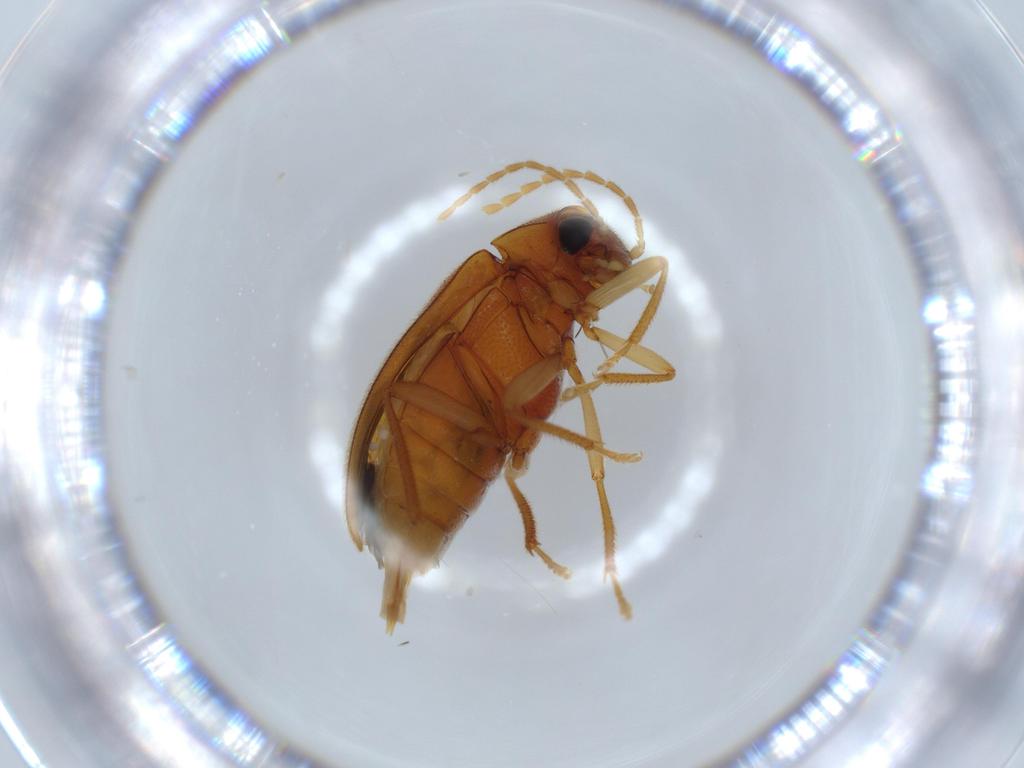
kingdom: Animalia
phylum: Arthropoda
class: Insecta
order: Coleoptera
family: Ptilodactylidae
